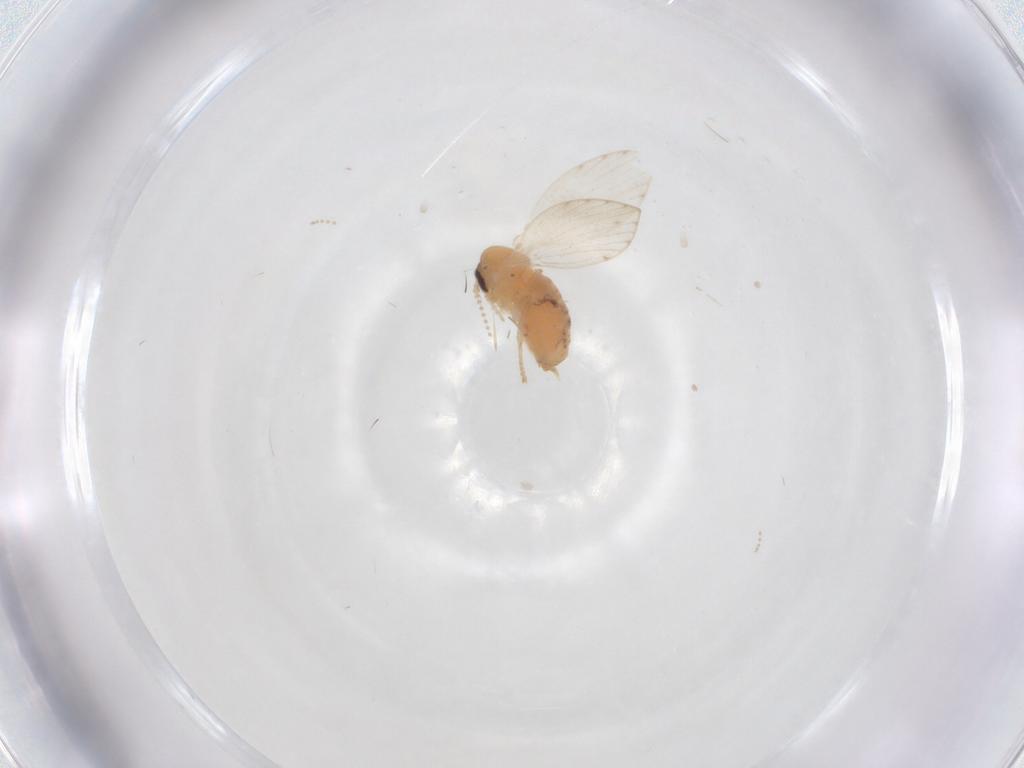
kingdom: Animalia
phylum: Arthropoda
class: Insecta
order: Diptera
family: Psychodidae
